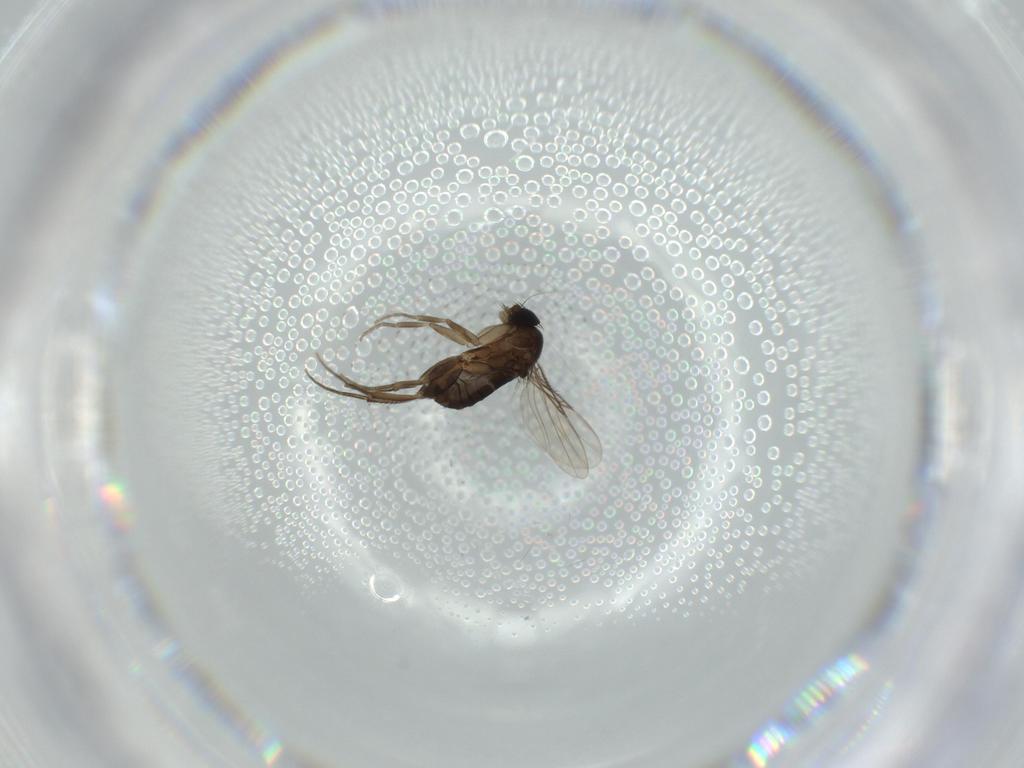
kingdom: Animalia
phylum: Arthropoda
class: Insecta
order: Diptera
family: Phoridae
